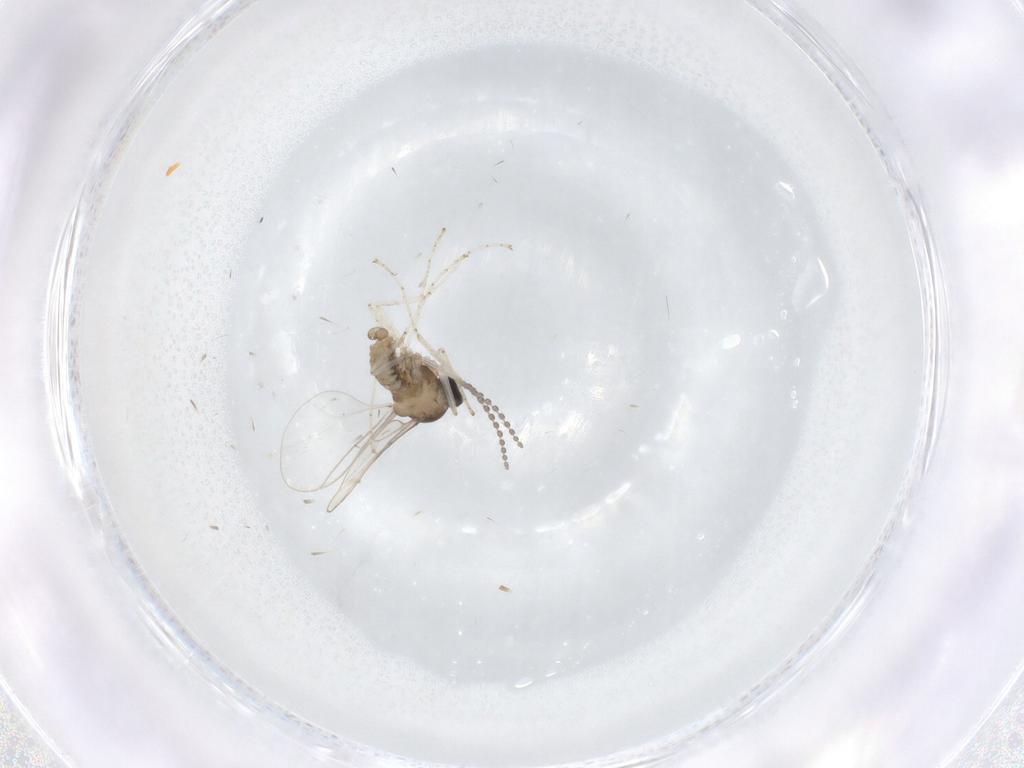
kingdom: Animalia
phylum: Arthropoda
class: Insecta
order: Diptera
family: Cecidomyiidae
